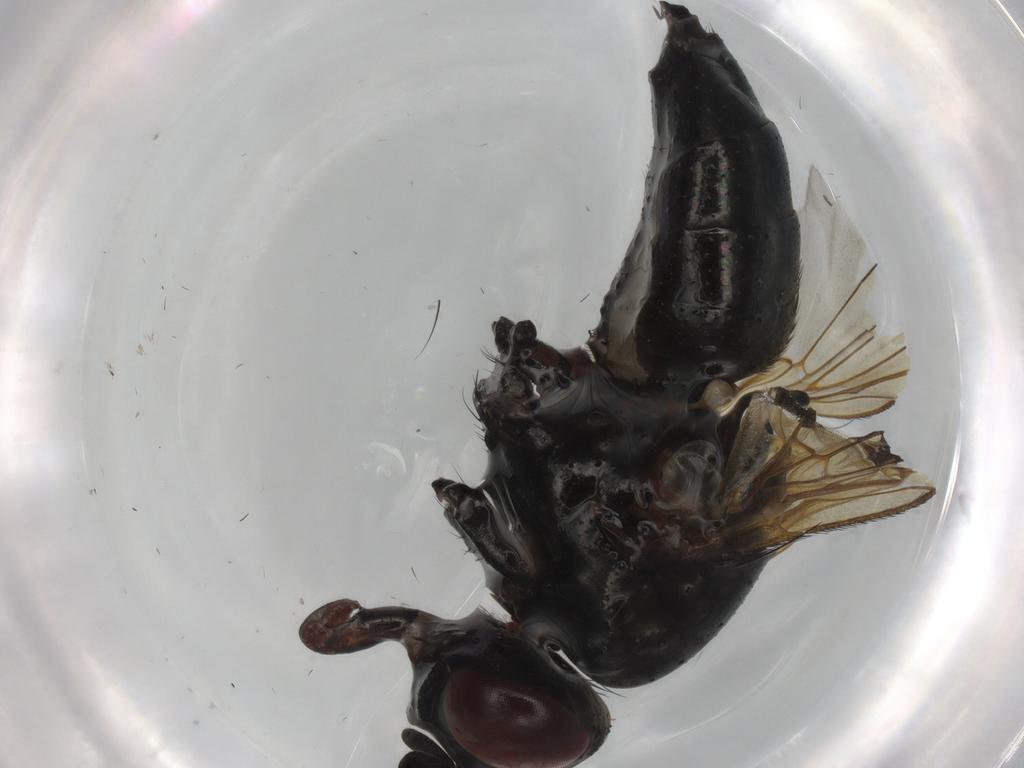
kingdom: Animalia
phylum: Arthropoda
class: Insecta
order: Diptera
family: Anthomyiidae
